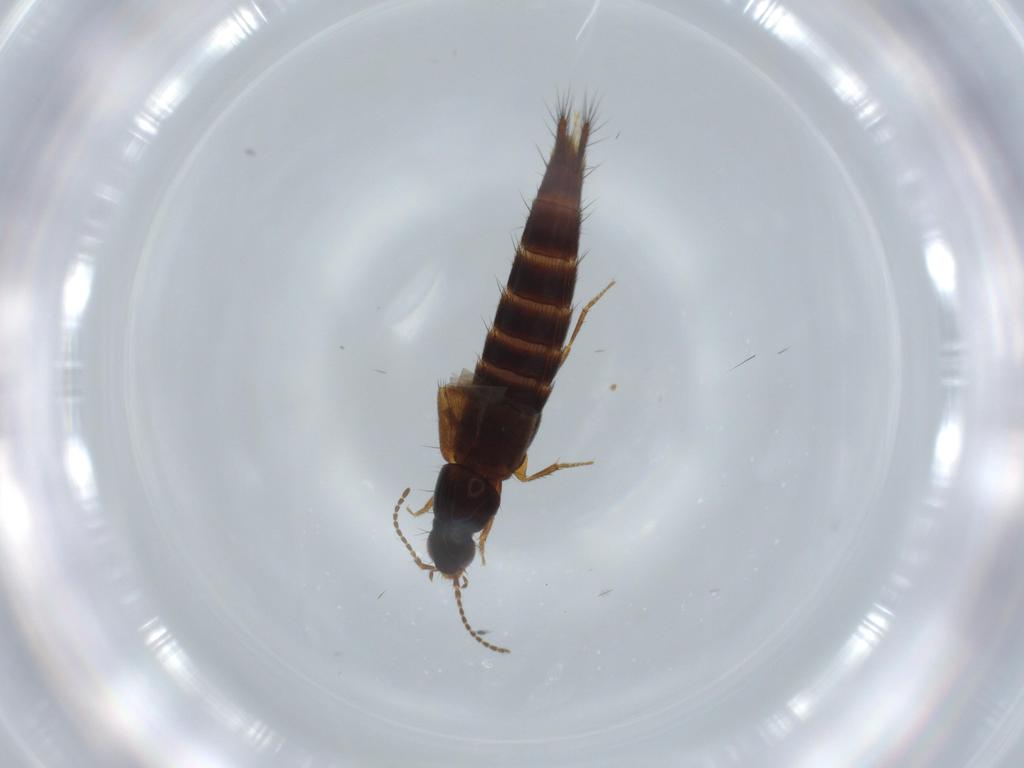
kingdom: Animalia
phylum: Arthropoda
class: Insecta
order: Coleoptera
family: Staphylinidae
